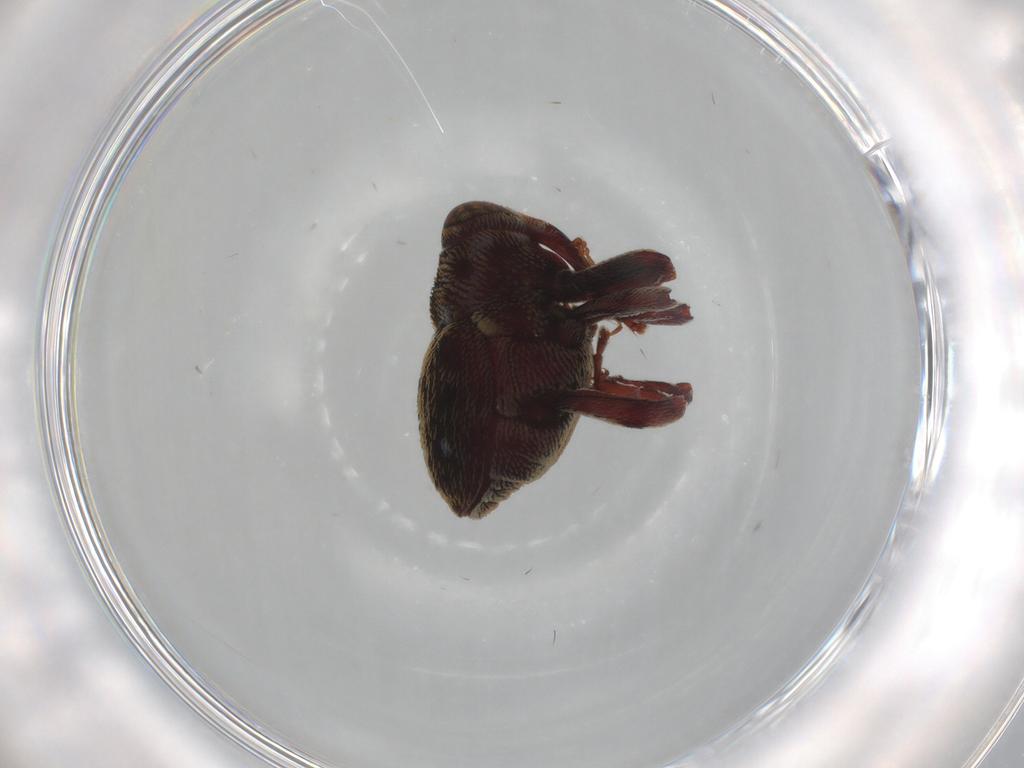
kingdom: Animalia
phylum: Arthropoda
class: Insecta
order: Coleoptera
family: Curculionidae
